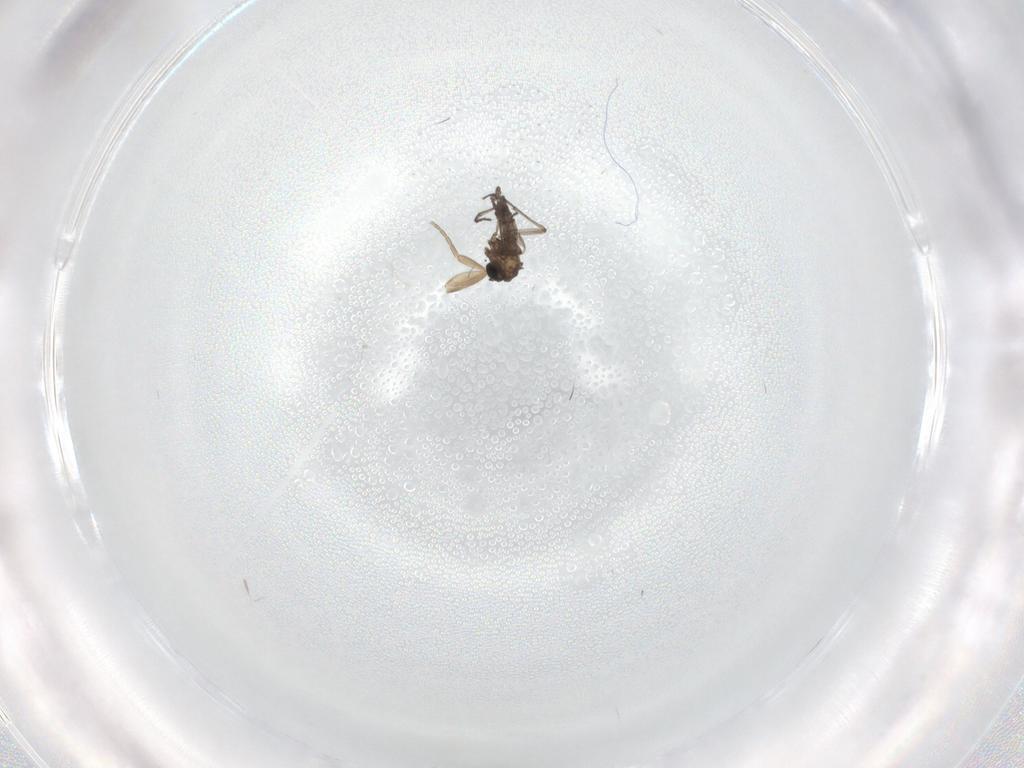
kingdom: Animalia
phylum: Arthropoda
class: Insecta
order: Diptera
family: Sciaridae
